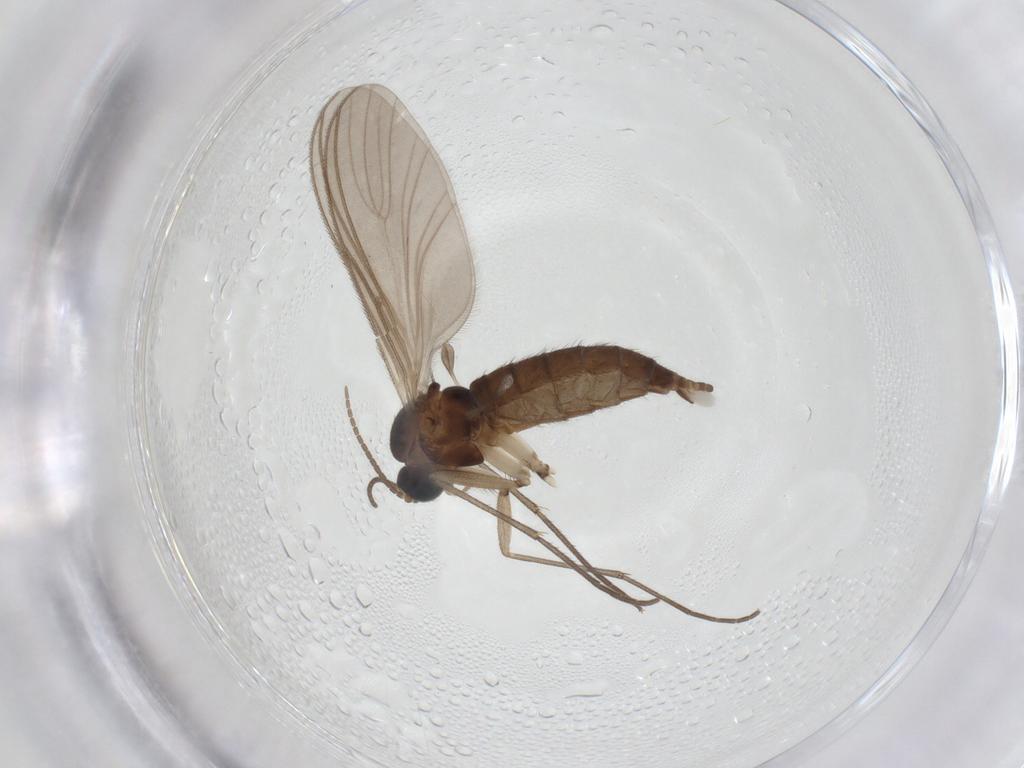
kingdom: Animalia
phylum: Arthropoda
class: Insecta
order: Diptera
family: Sciaridae
